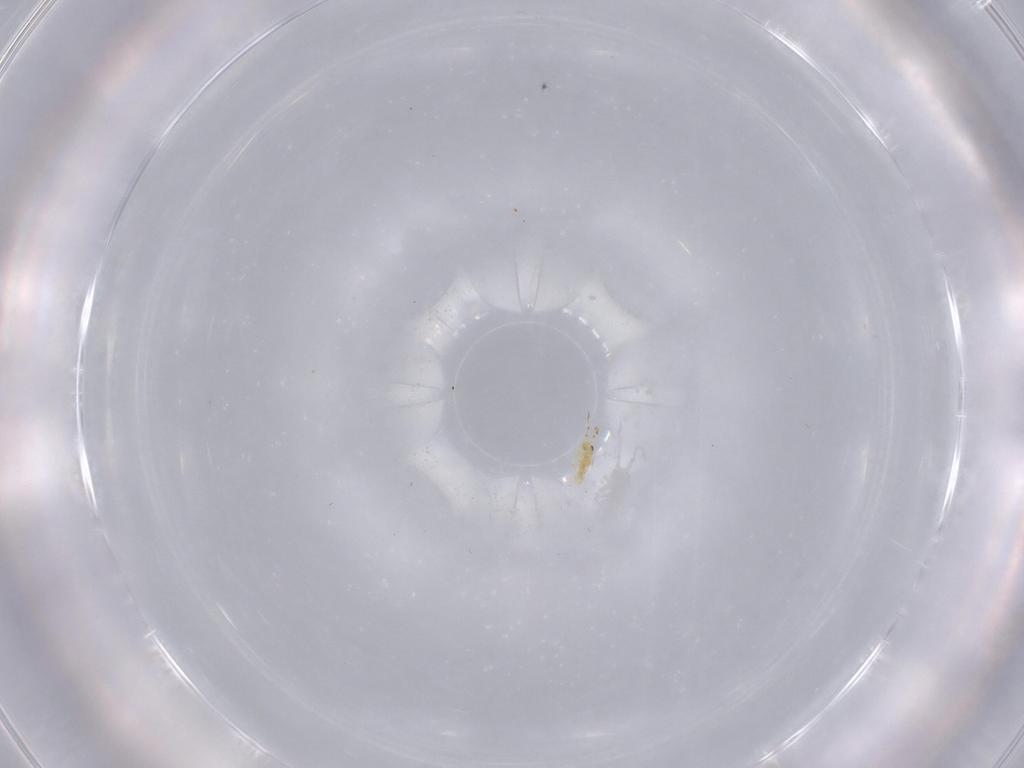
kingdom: Animalia
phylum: Arthropoda
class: Collembola
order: Entomobryomorpha
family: Entomobryidae
